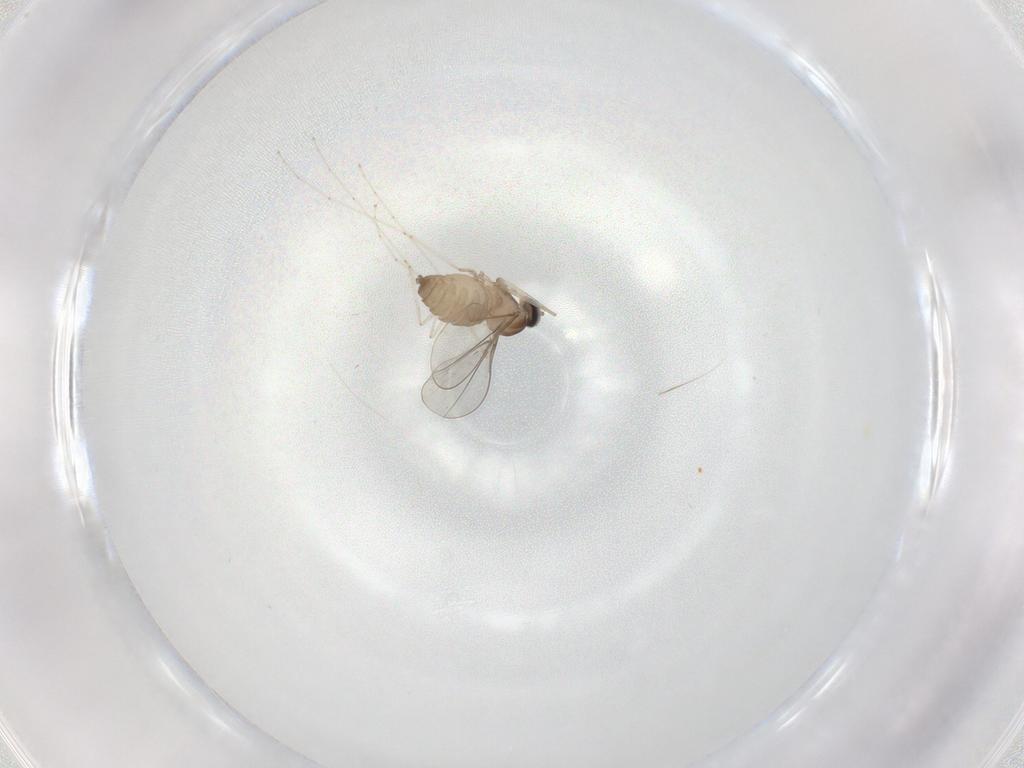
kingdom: Animalia
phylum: Arthropoda
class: Insecta
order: Diptera
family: Cecidomyiidae
